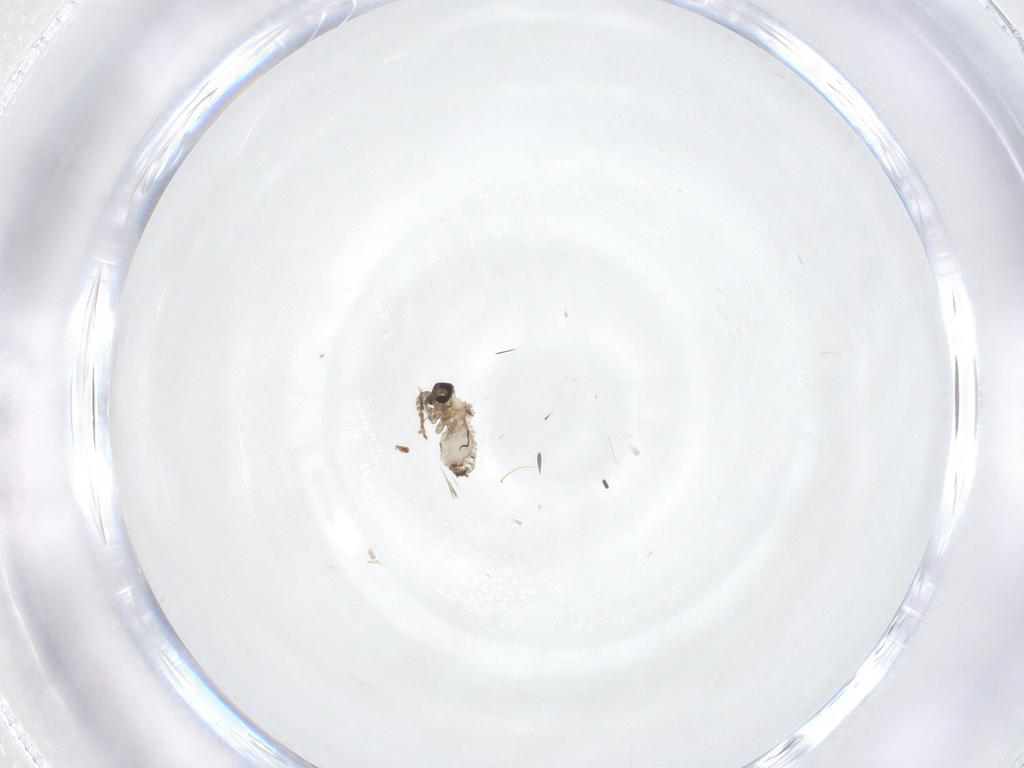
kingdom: Animalia
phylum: Arthropoda
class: Insecta
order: Diptera
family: Psychodidae
